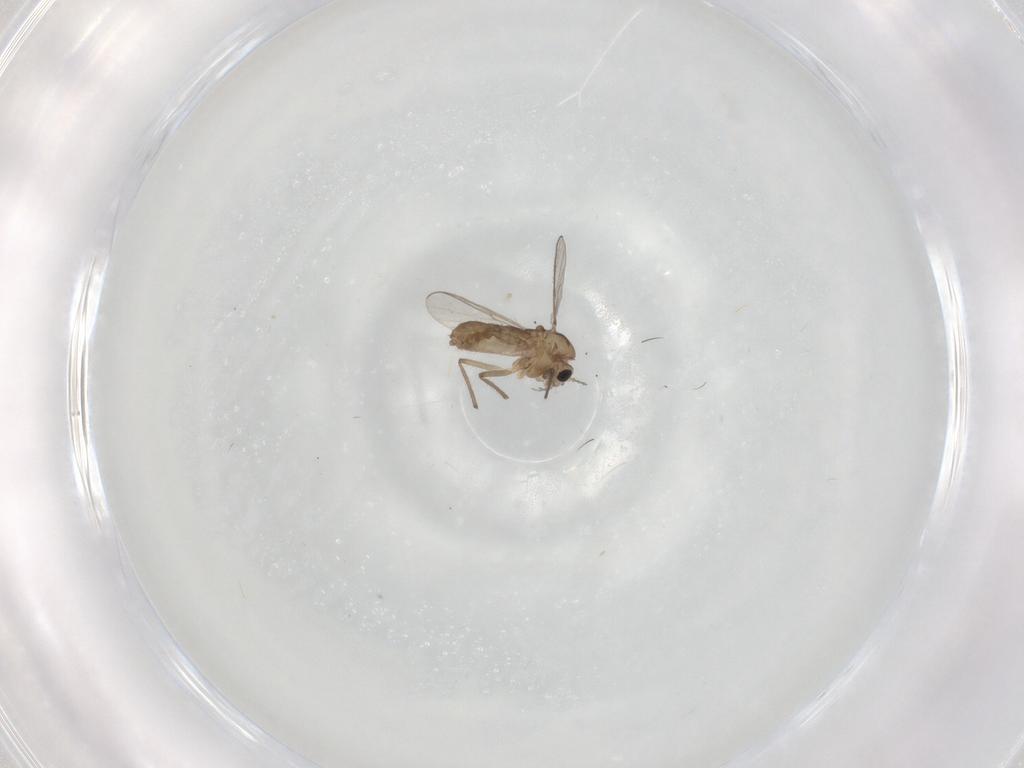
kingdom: Animalia
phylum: Arthropoda
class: Insecta
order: Diptera
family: Chironomidae
